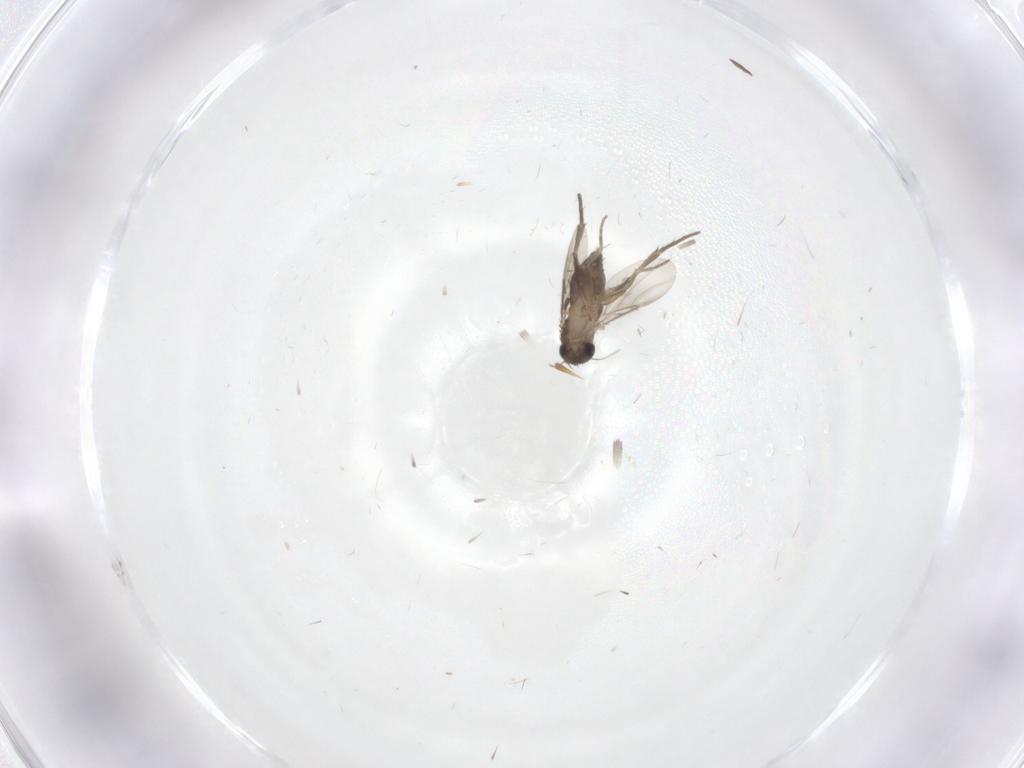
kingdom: Animalia
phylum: Arthropoda
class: Insecta
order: Diptera
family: Phoridae
